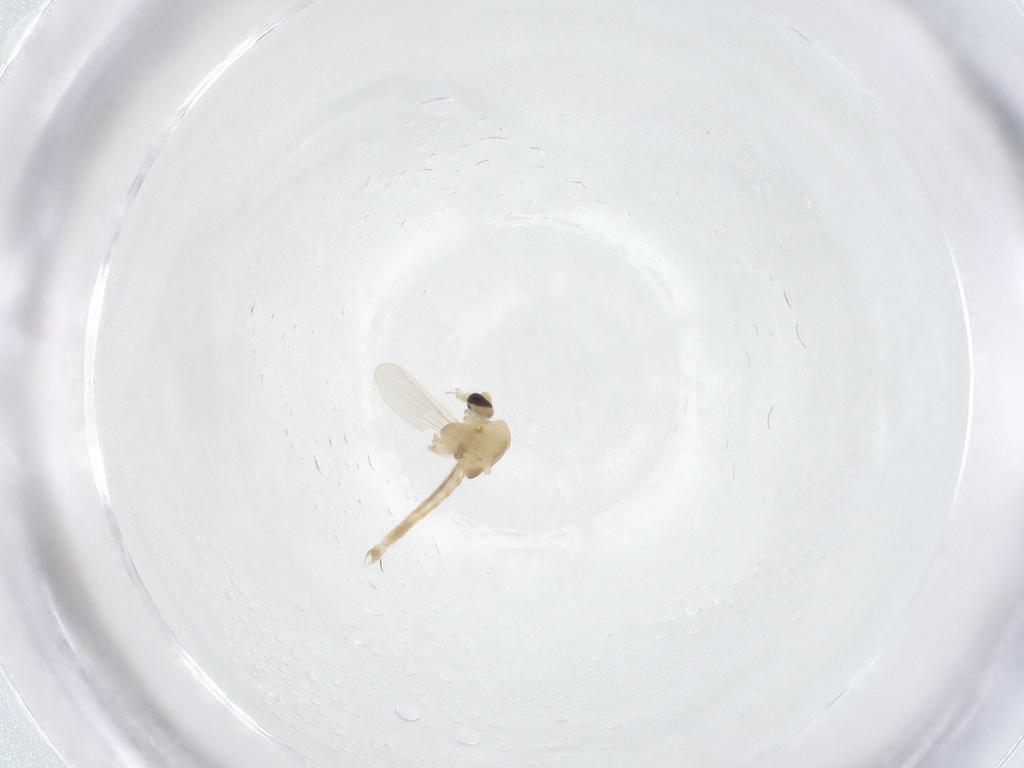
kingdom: Animalia
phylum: Arthropoda
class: Insecta
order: Diptera
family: Chironomidae
